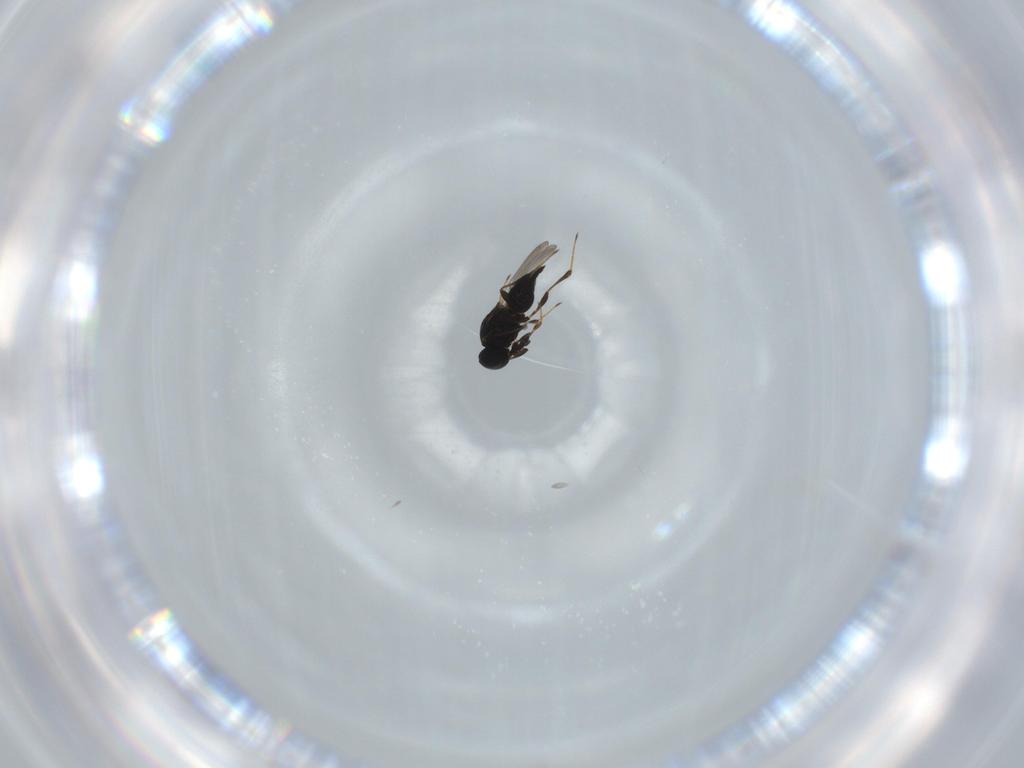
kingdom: Animalia
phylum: Arthropoda
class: Insecta
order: Hymenoptera
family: Platygastridae
